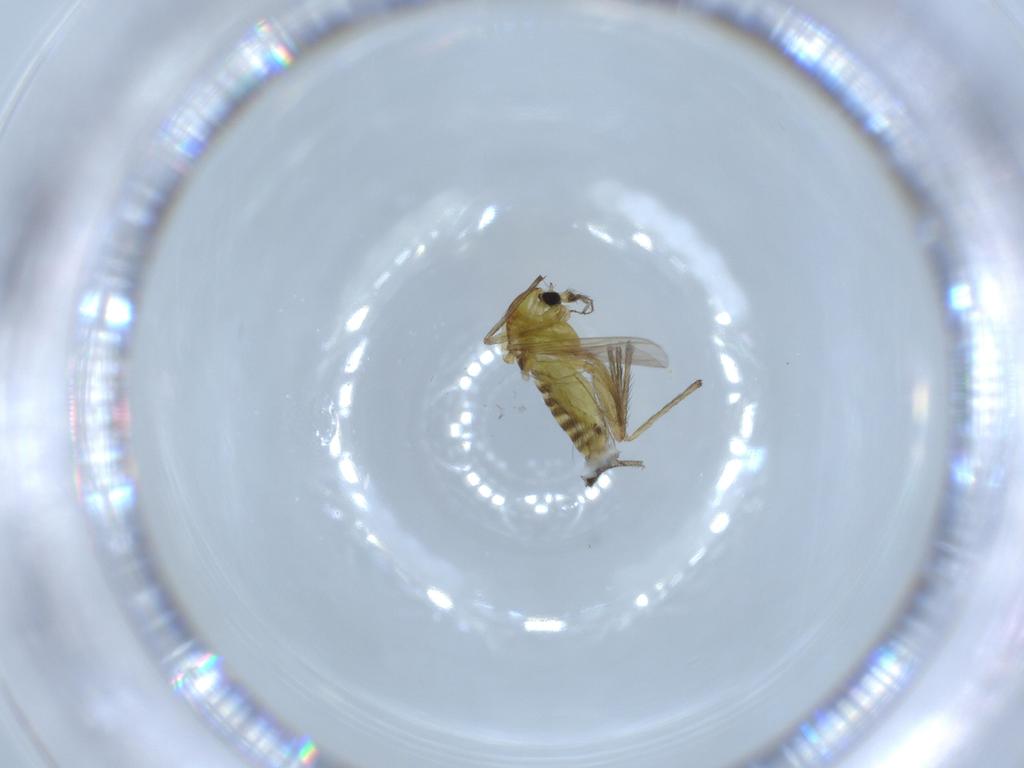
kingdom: Animalia
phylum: Arthropoda
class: Insecta
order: Diptera
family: Chironomidae
